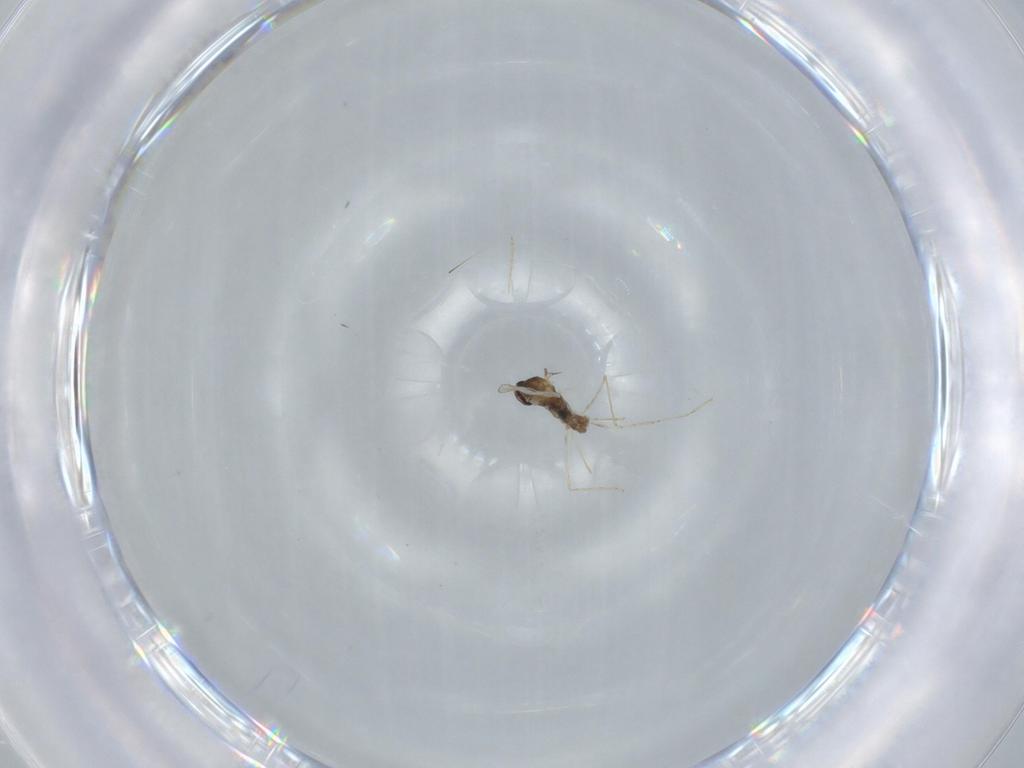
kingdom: Animalia
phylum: Arthropoda
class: Insecta
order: Diptera
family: Cecidomyiidae
